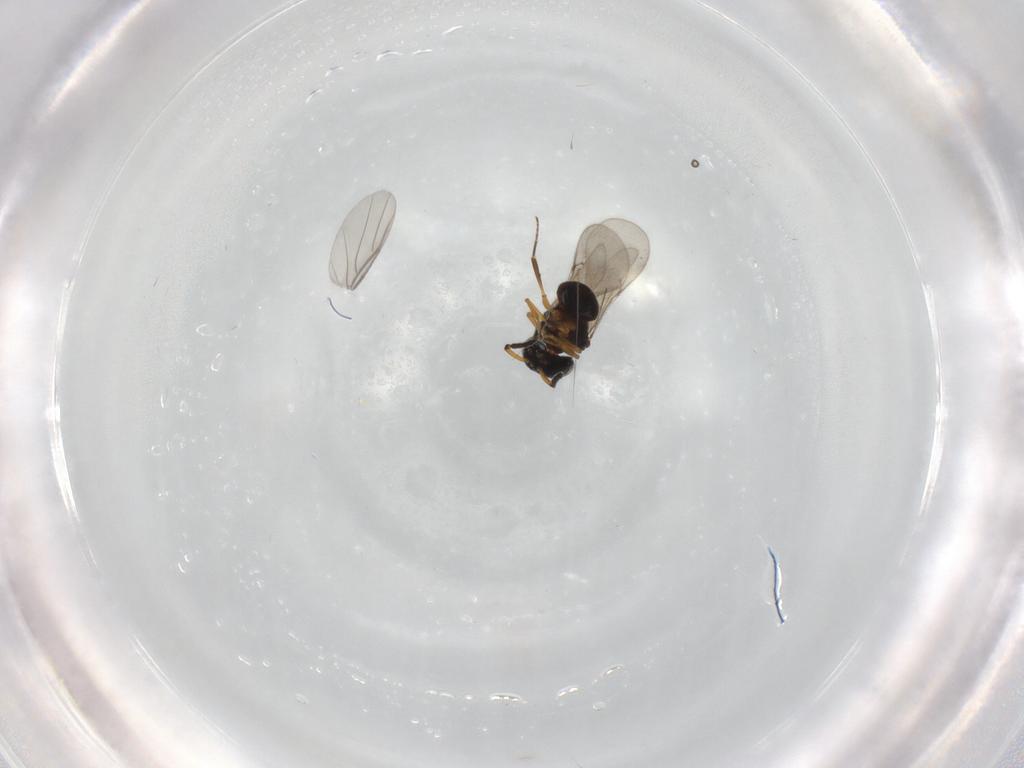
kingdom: Animalia
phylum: Arthropoda
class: Insecta
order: Hymenoptera
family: Scelionidae
